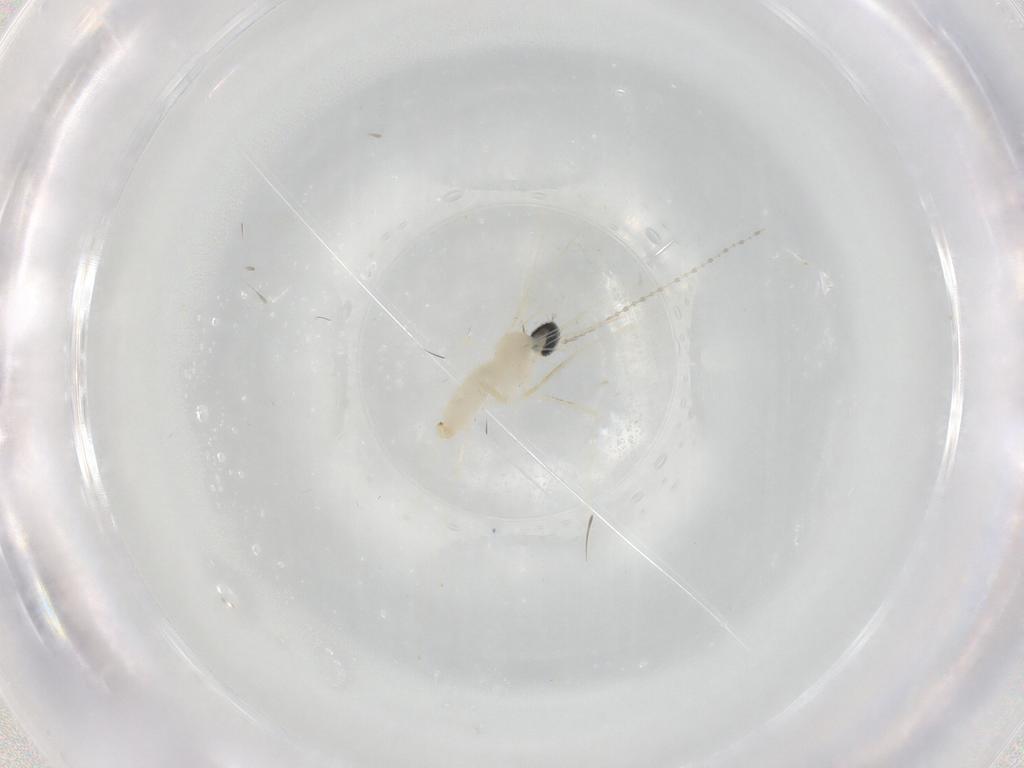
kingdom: Animalia
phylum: Arthropoda
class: Insecta
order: Diptera
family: Cecidomyiidae
